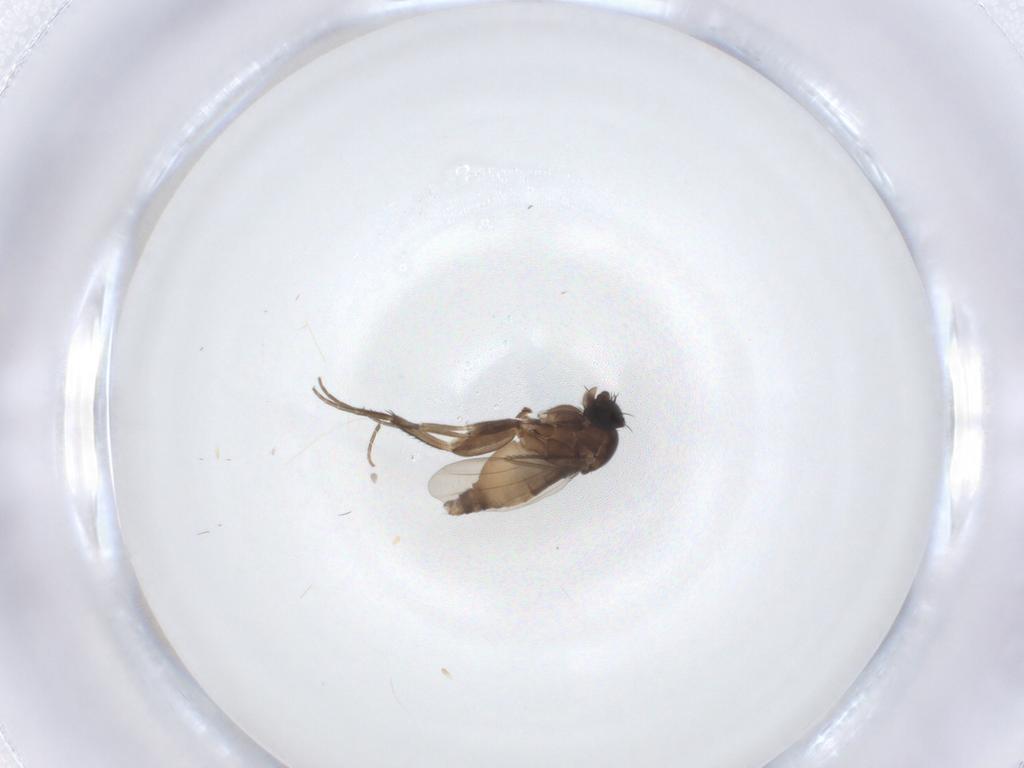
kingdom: Animalia
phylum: Arthropoda
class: Insecta
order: Diptera
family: Phoridae
